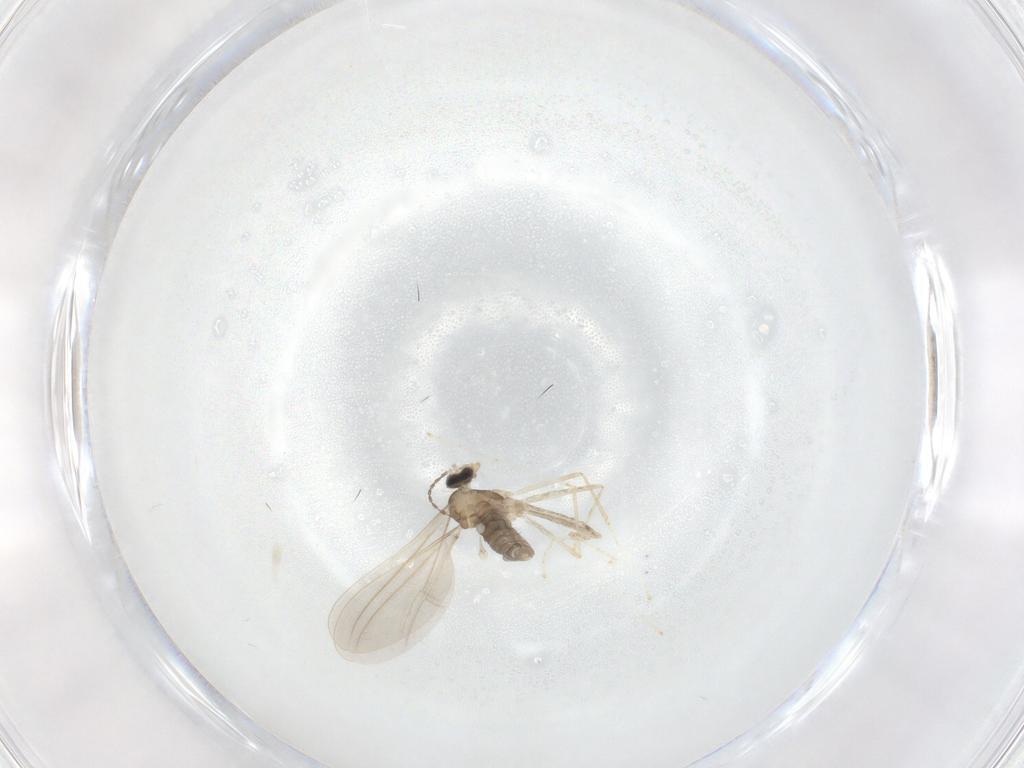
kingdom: Animalia
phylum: Arthropoda
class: Insecta
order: Diptera
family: Cecidomyiidae
